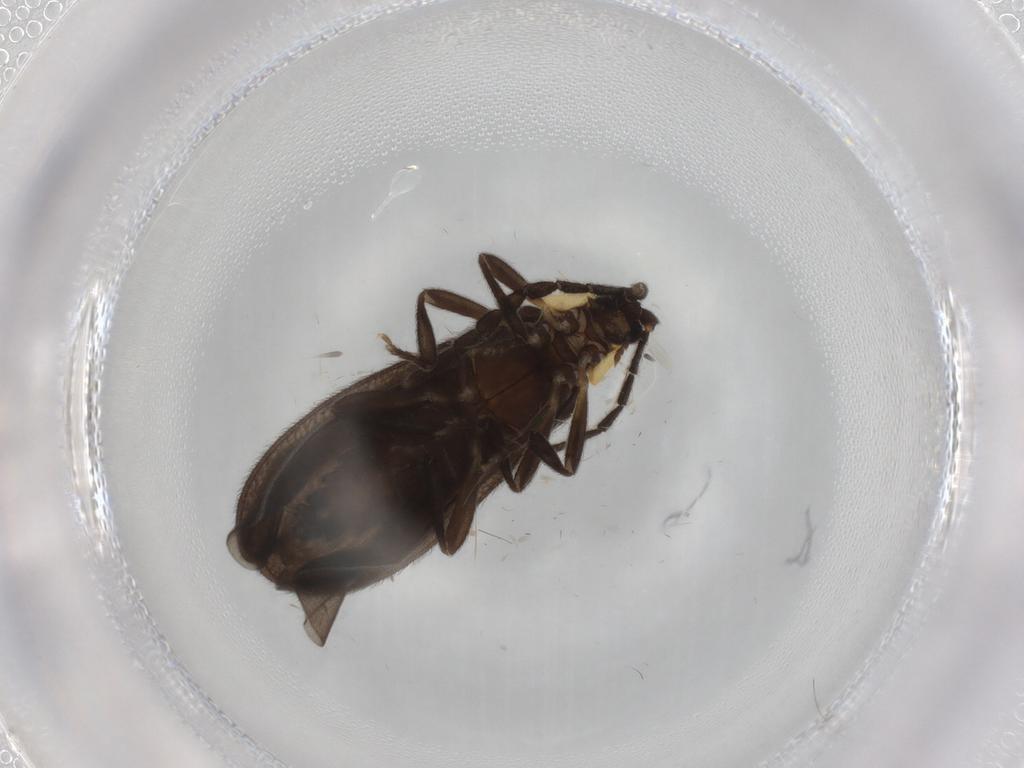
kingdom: Animalia
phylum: Arthropoda
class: Insecta
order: Coleoptera
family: Lycidae
